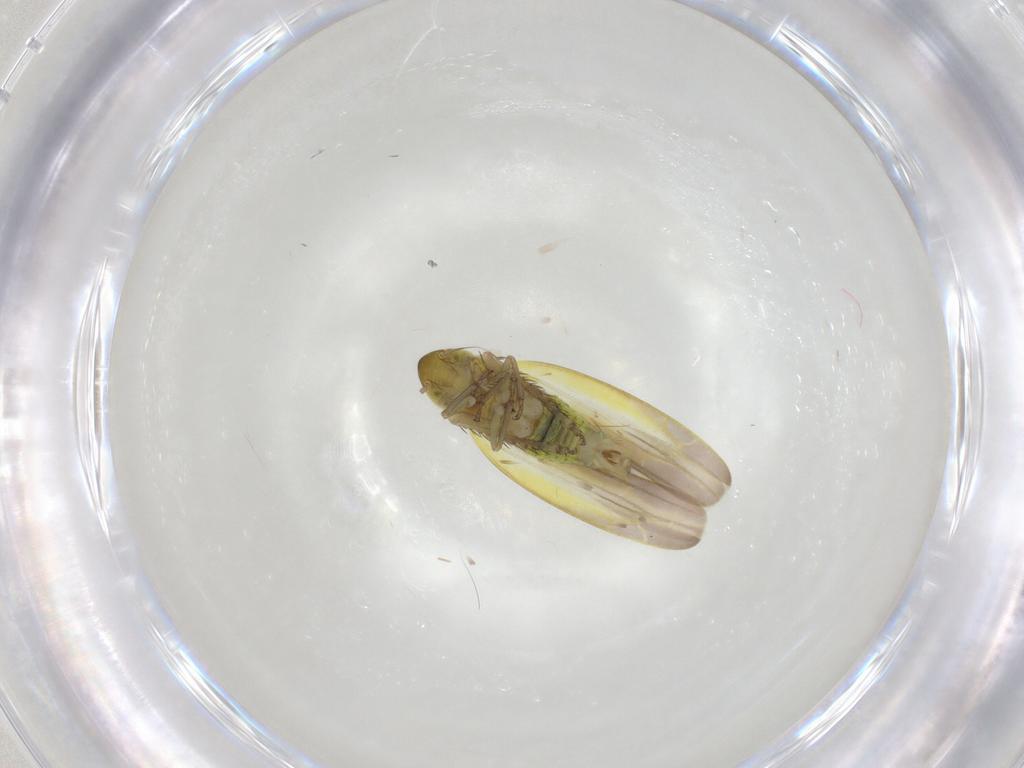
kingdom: Animalia
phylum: Arthropoda
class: Insecta
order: Hemiptera
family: Cicadellidae
